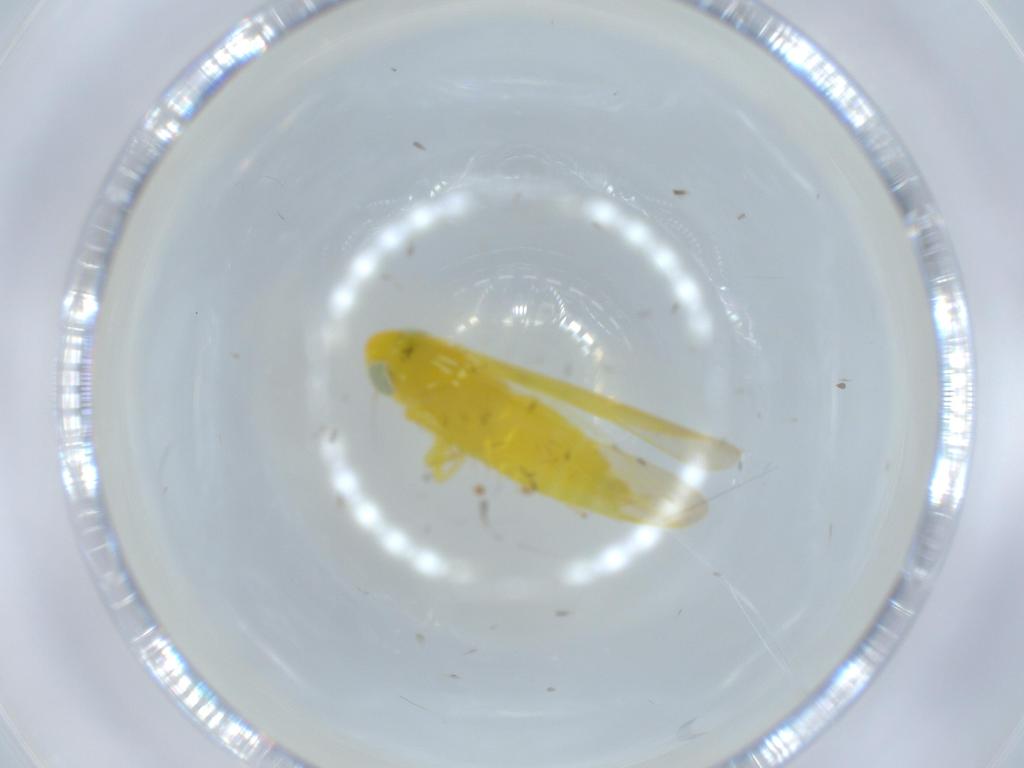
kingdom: Animalia
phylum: Arthropoda
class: Insecta
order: Hemiptera
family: Cicadellidae
